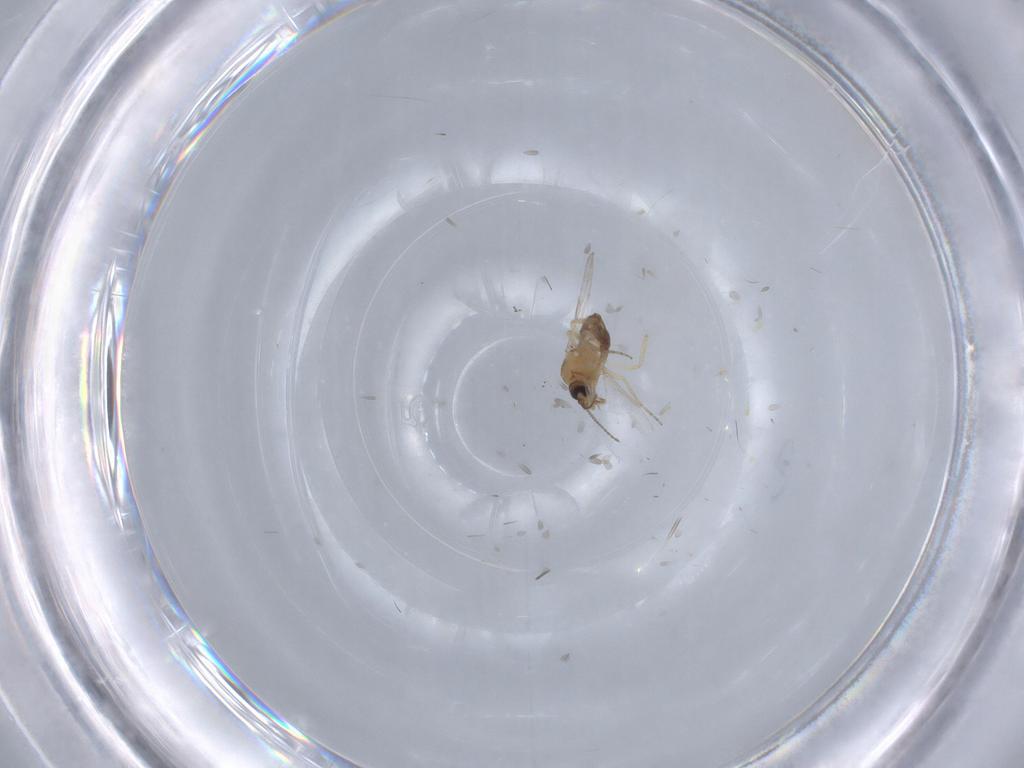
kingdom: Animalia
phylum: Arthropoda
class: Insecta
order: Diptera
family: Ceratopogonidae
